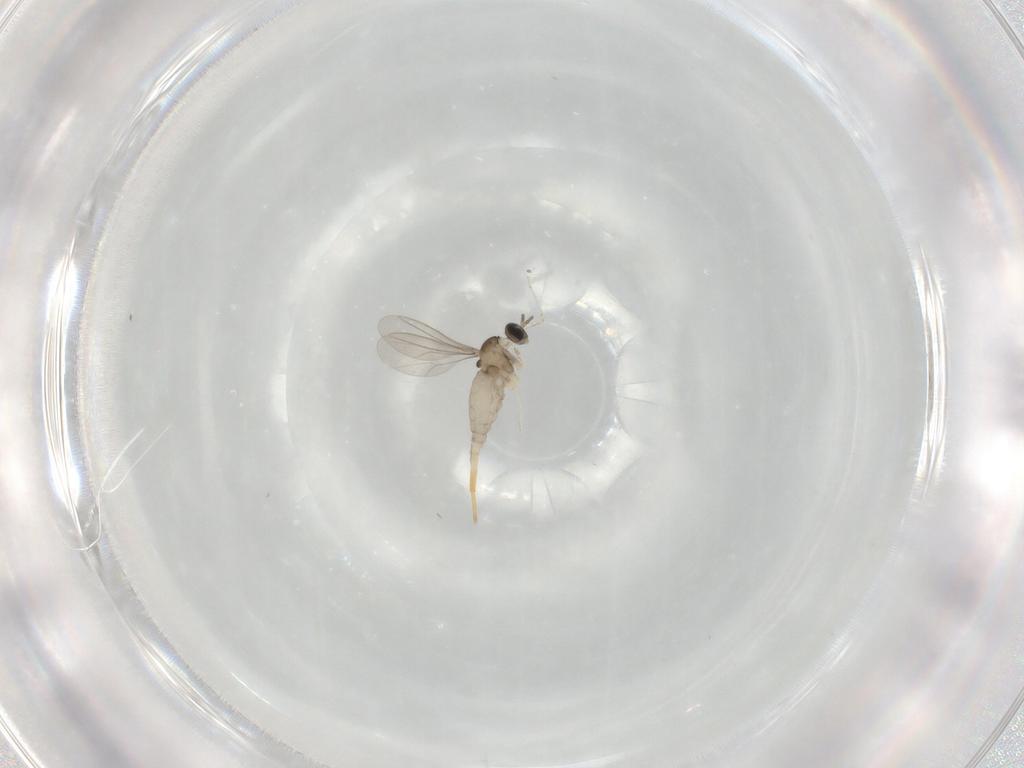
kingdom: Animalia
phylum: Arthropoda
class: Insecta
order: Diptera
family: Cecidomyiidae
